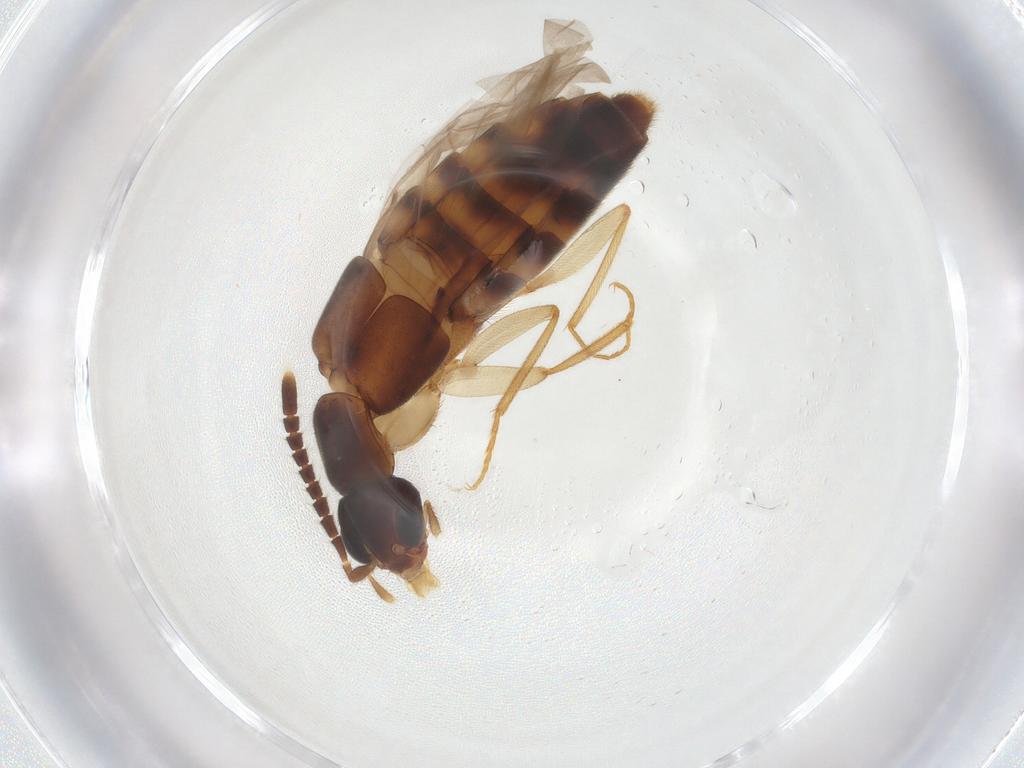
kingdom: Animalia
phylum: Arthropoda
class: Insecta
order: Coleoptera
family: Staphylinidae
